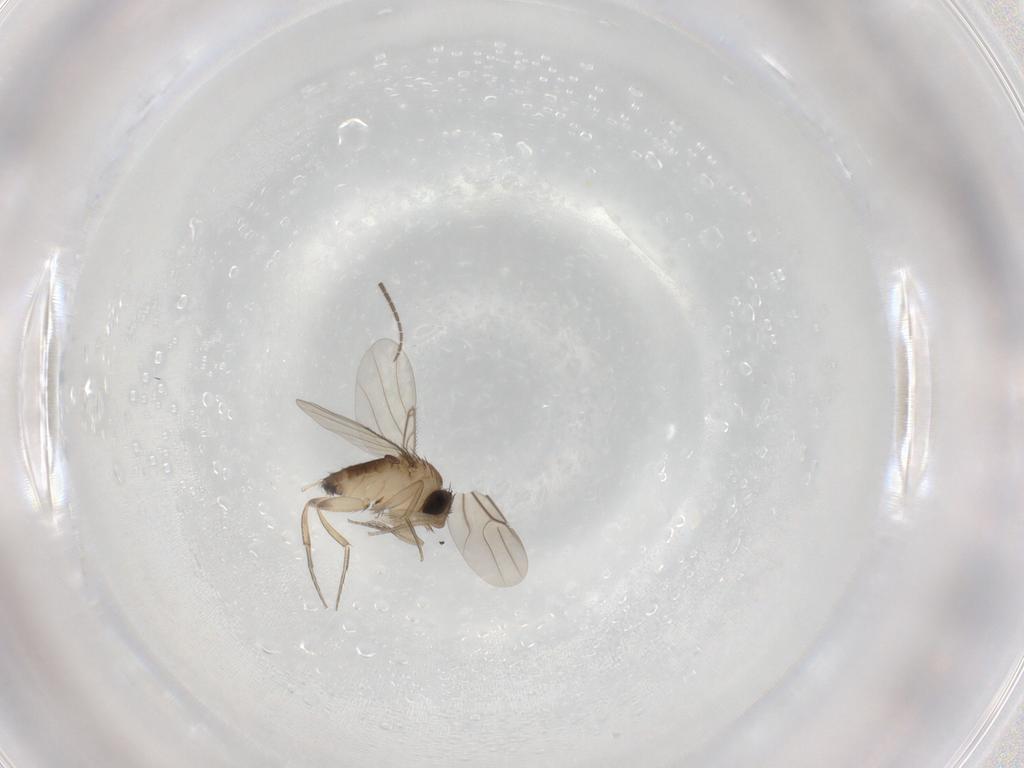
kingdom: Animalia
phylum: Arthropoda
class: Insecta
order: Diptera
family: Phoridae
